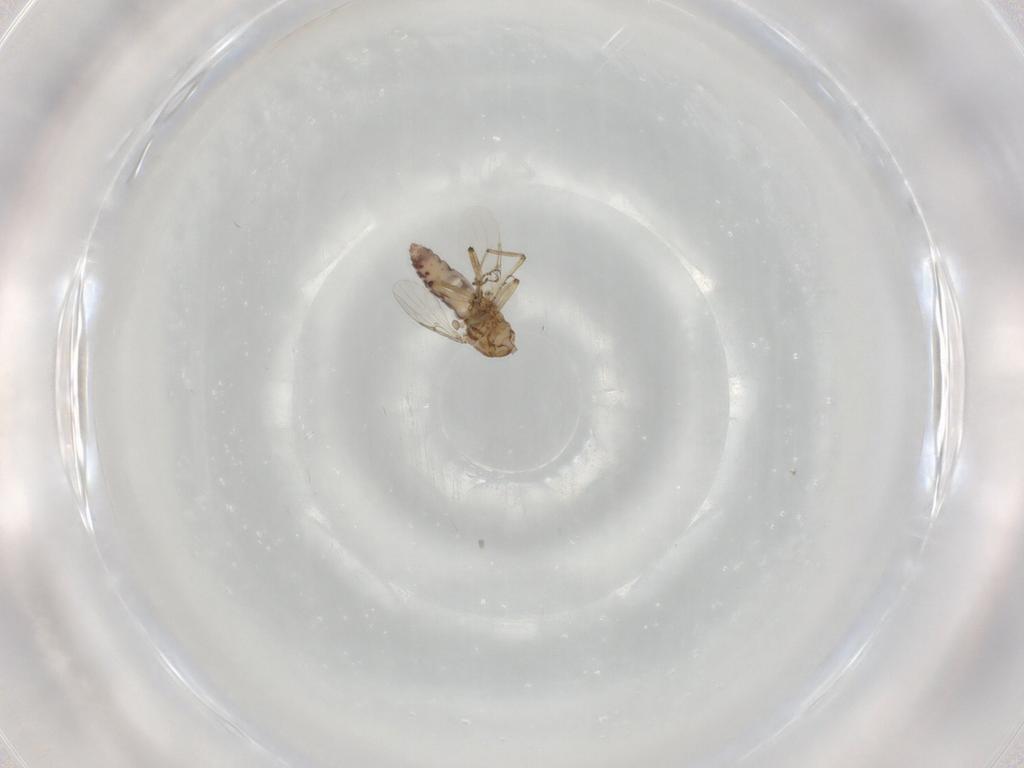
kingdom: Animalia
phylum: Arthropoda
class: Insecta
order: Diptera
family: Ceratopogonidae
